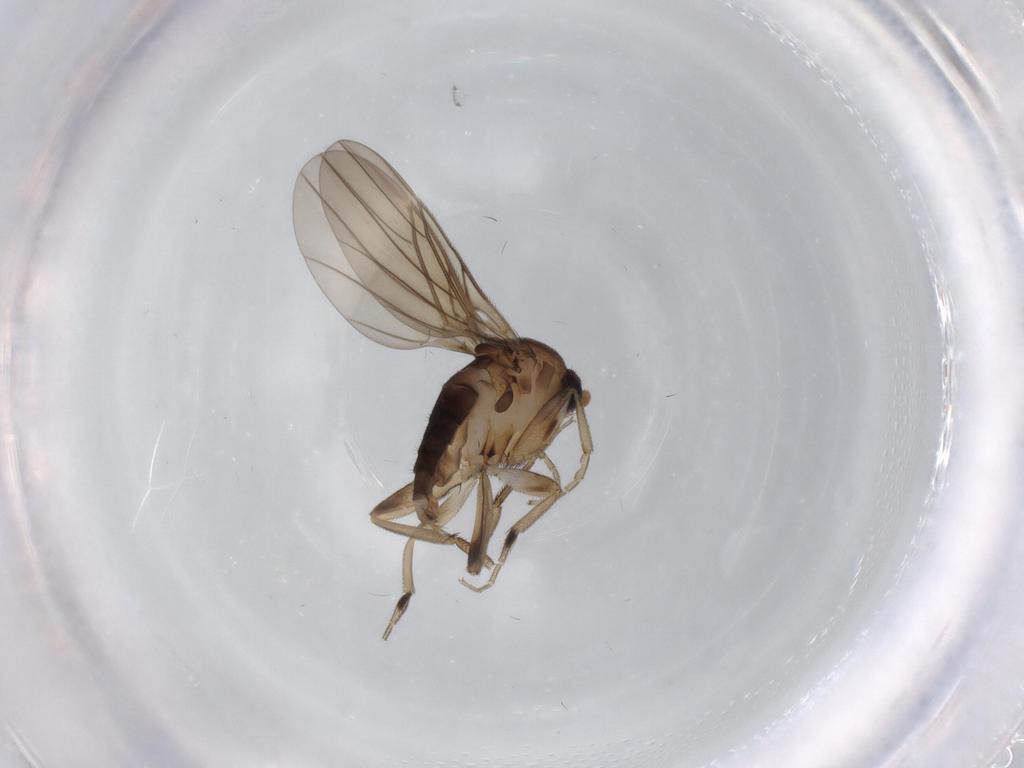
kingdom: Animalia
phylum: Arthropoda
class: Insecta
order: Diptera
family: Phoridae
